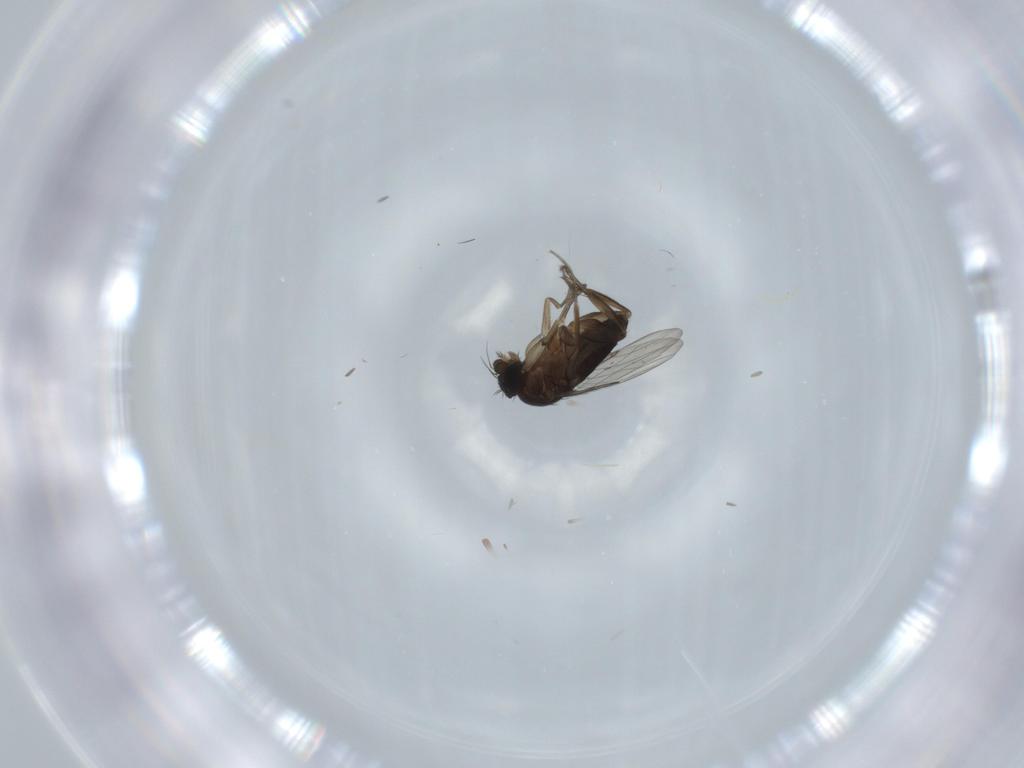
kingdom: Animalia
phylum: Arthropoda
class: Insecta
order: Diptera
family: Phoridae
